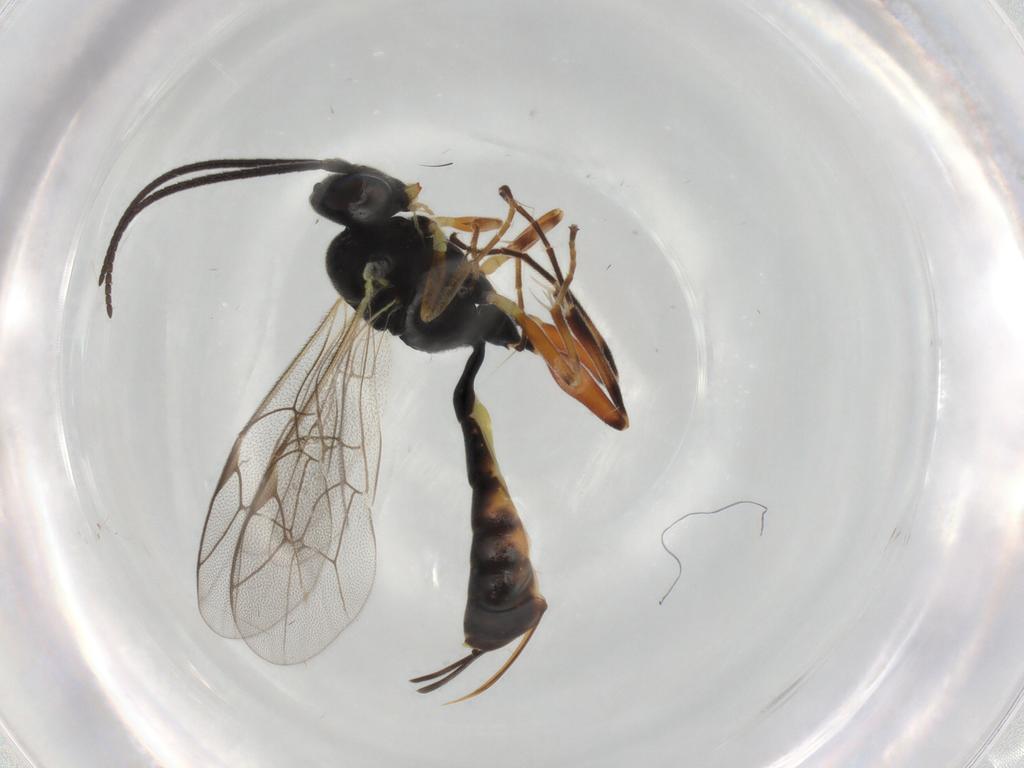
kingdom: Animalia
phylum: Arthropoda
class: Insecta
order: Hymenoptera
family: Ichneumonidae
